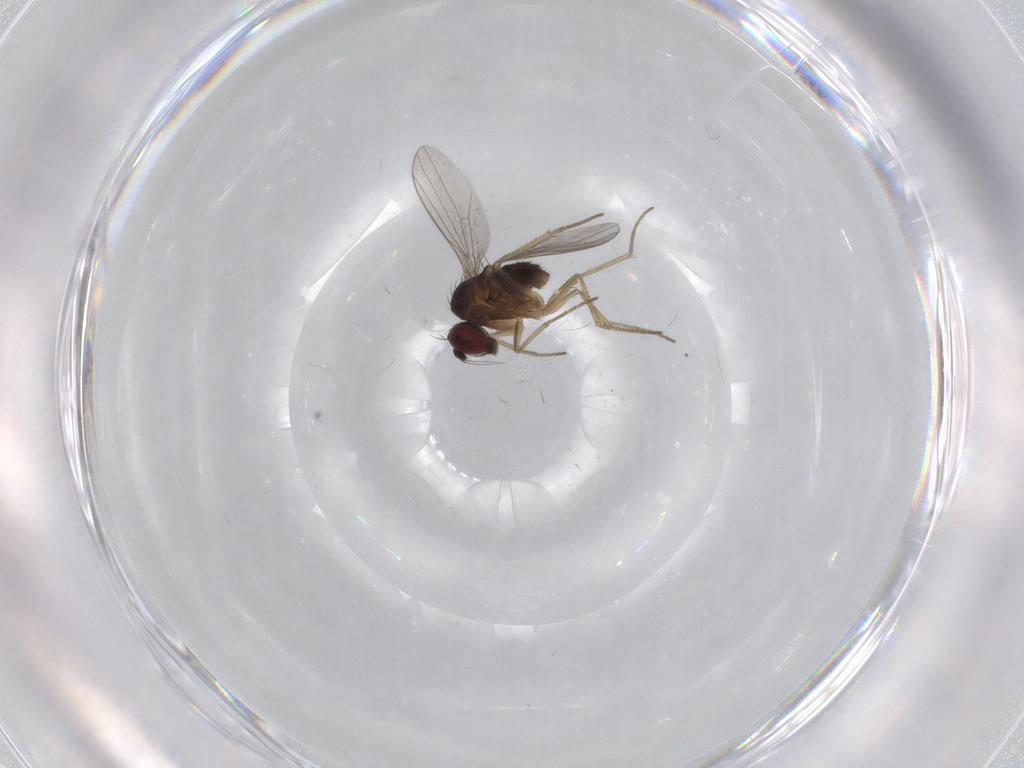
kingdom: Animalia
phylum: Arthropoda
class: Insecta
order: Diptera
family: Dolichopodidae
